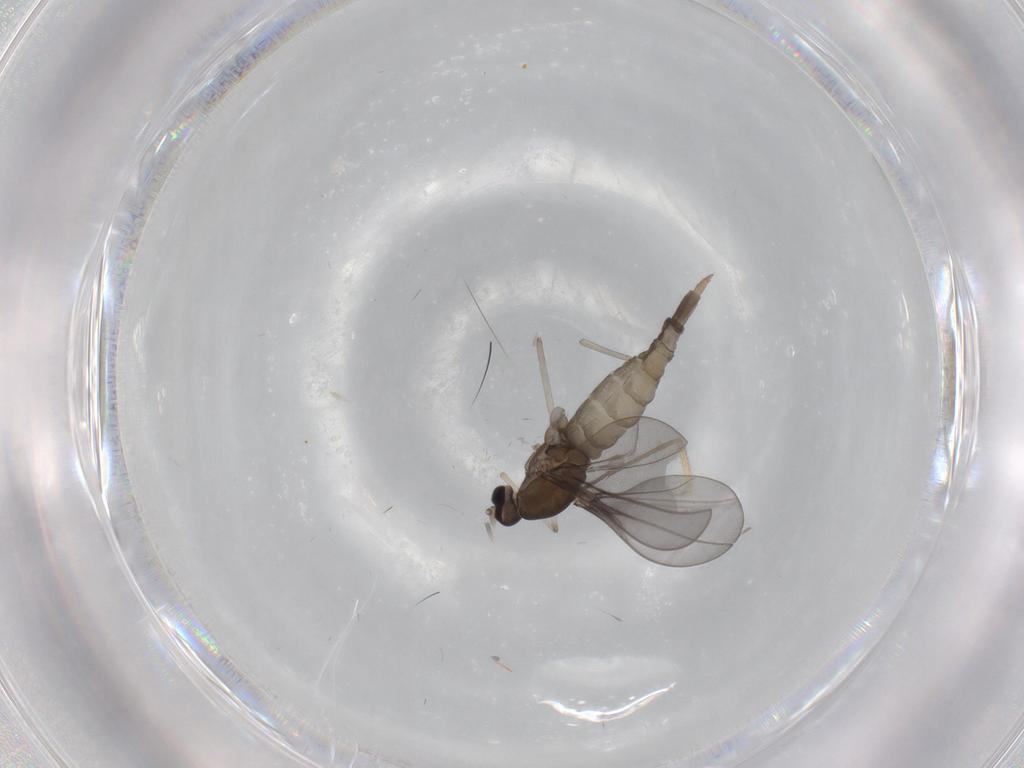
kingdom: Animalia
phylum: Arthropoda
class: Insecta
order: Diptera
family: Cecidomyiidae
